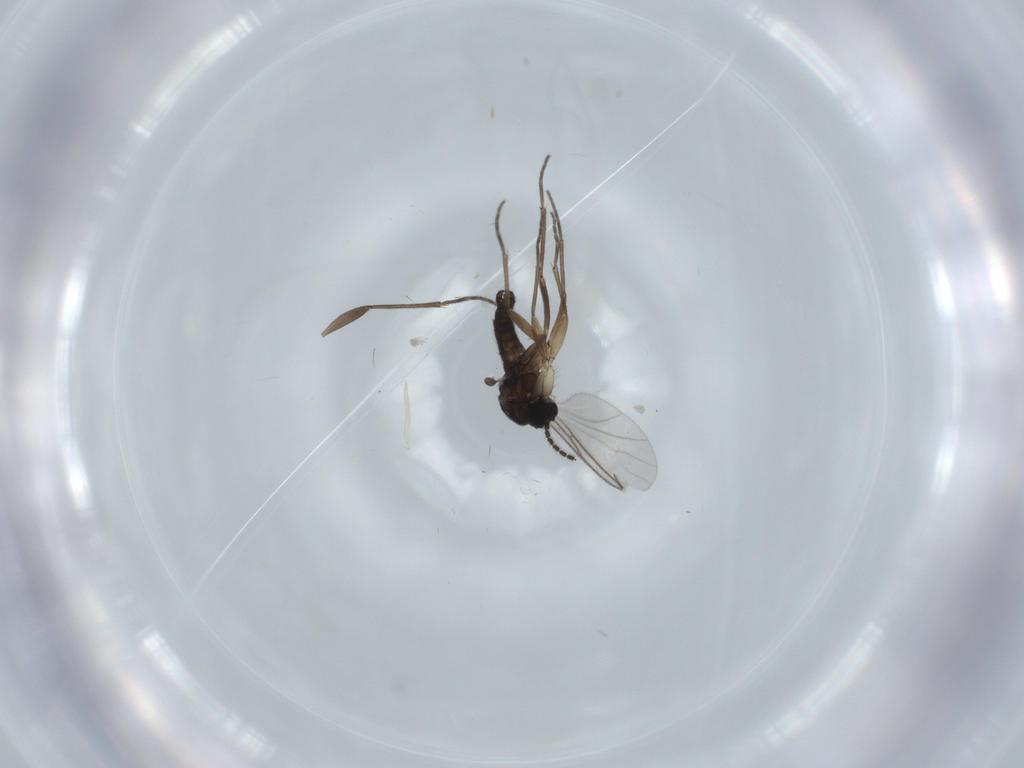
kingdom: Animalia
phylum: Arthropoda
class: Insecta
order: Diptera
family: Sciaridae
